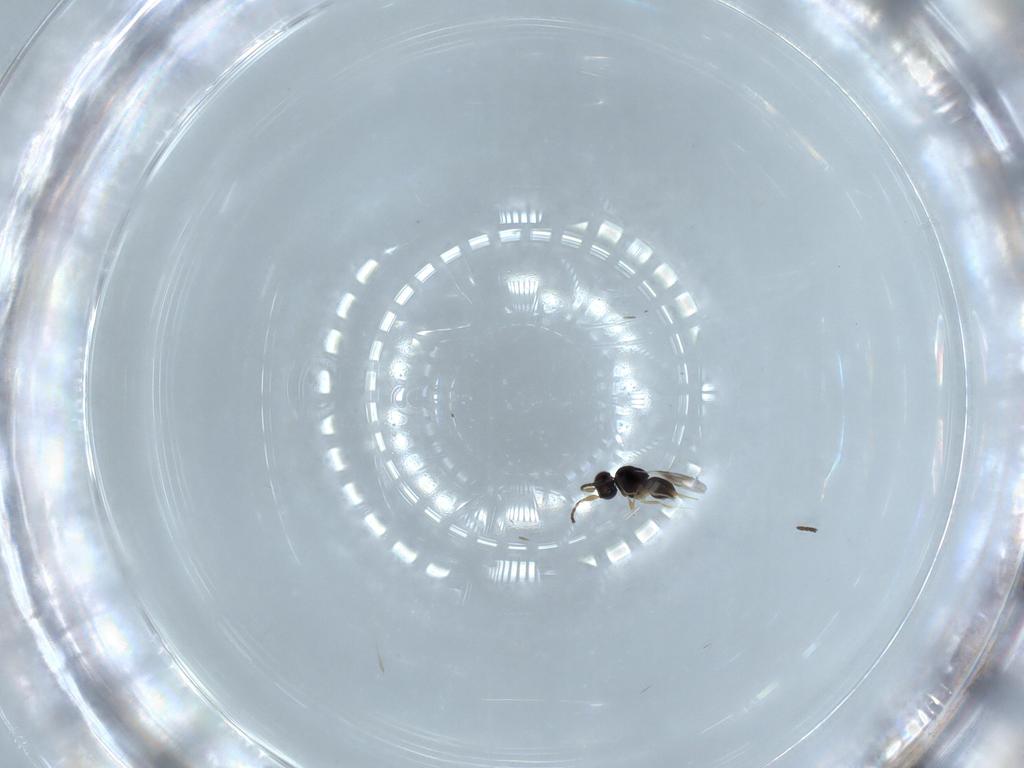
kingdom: Animalia
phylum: Arthropoda
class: Insecta
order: Hymenoptera
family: Ceraphronidae
